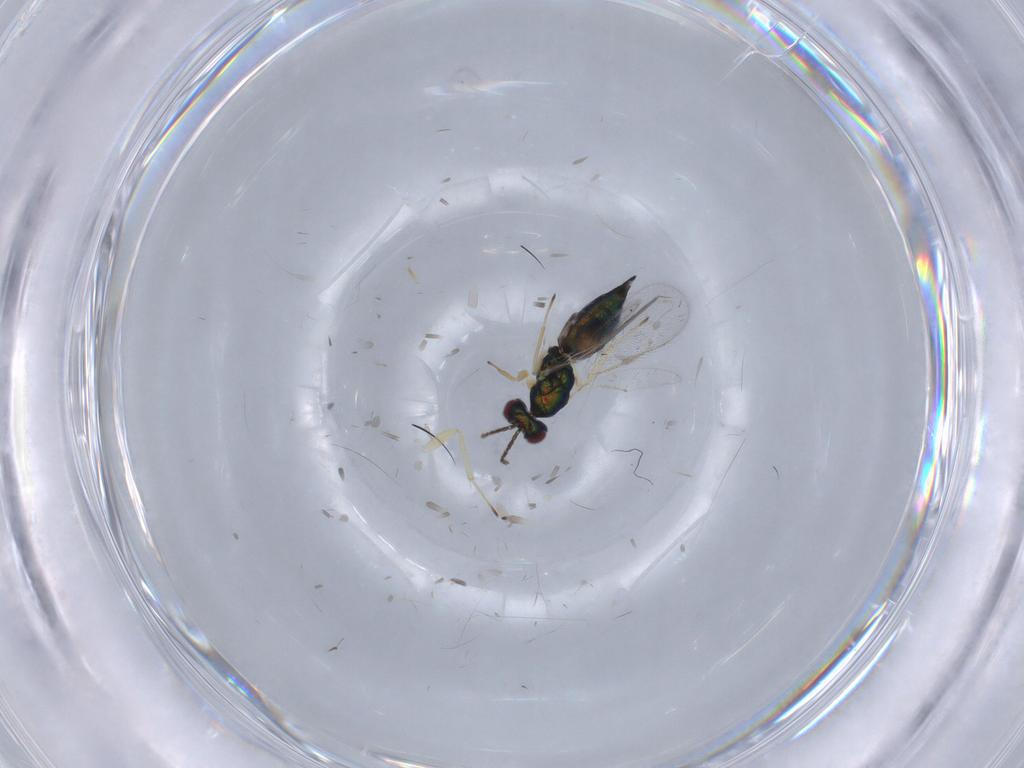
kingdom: Animalia
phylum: Arthropoda
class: Insecta
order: Hymenoptera
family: Eulophidae
